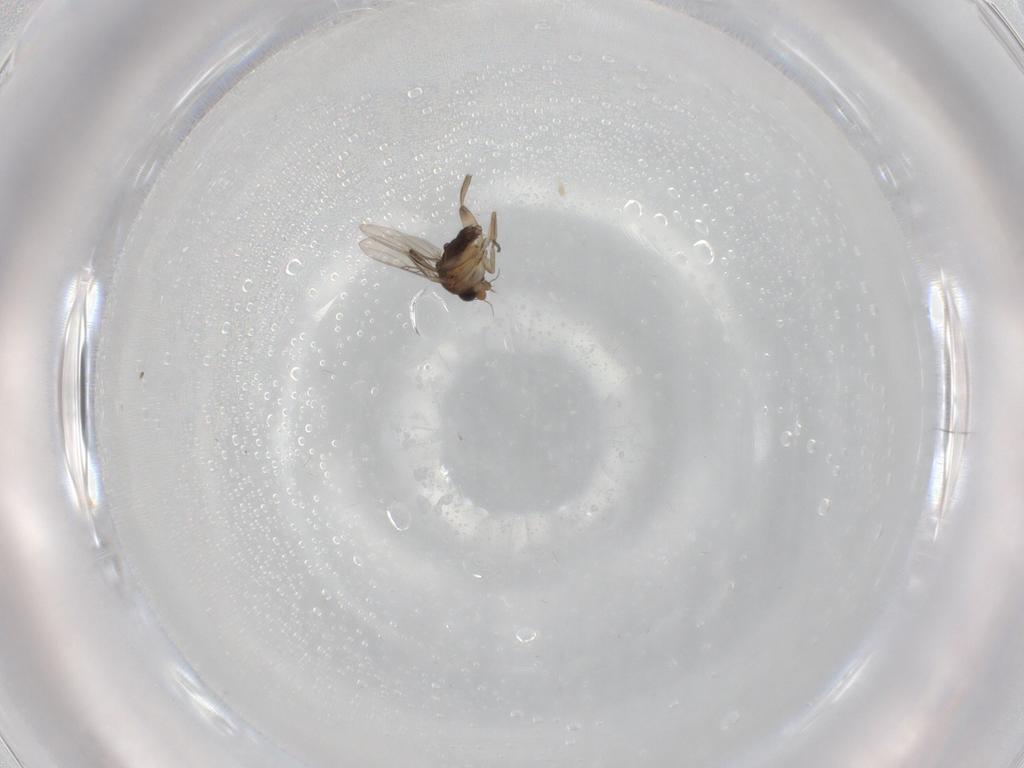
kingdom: Animalia
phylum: Arthropoda
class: Insecta
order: Diptera
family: Phoridae
